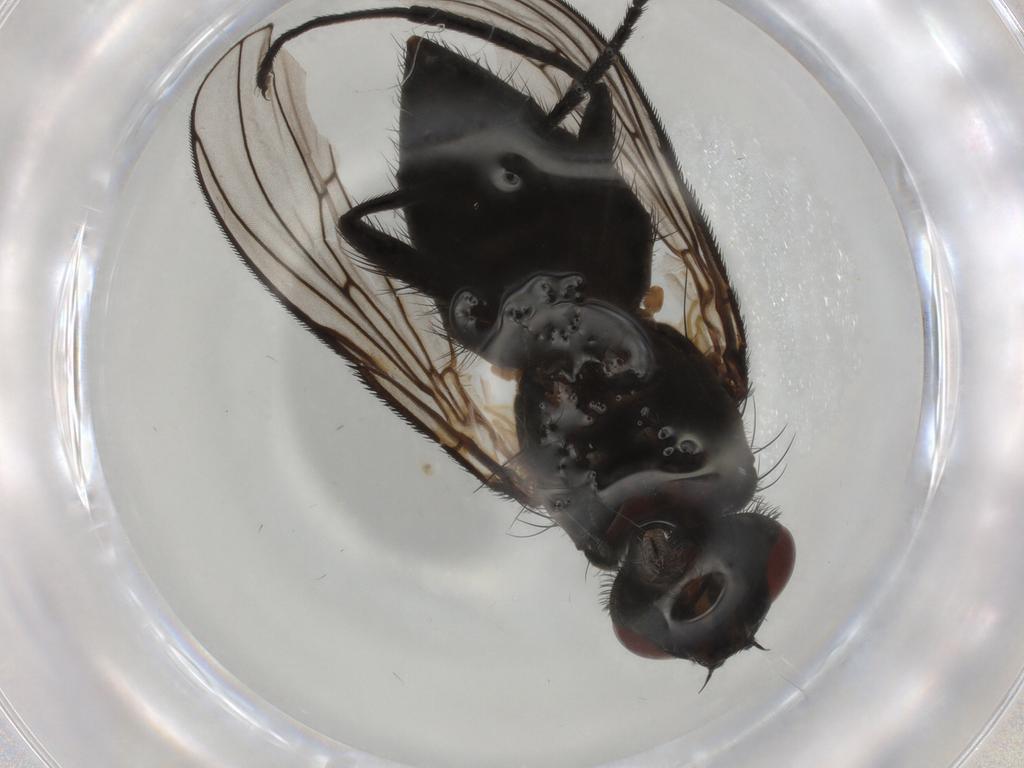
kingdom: Animalia
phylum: Arthropoda
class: Insecta
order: Diptera
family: Muscidae
